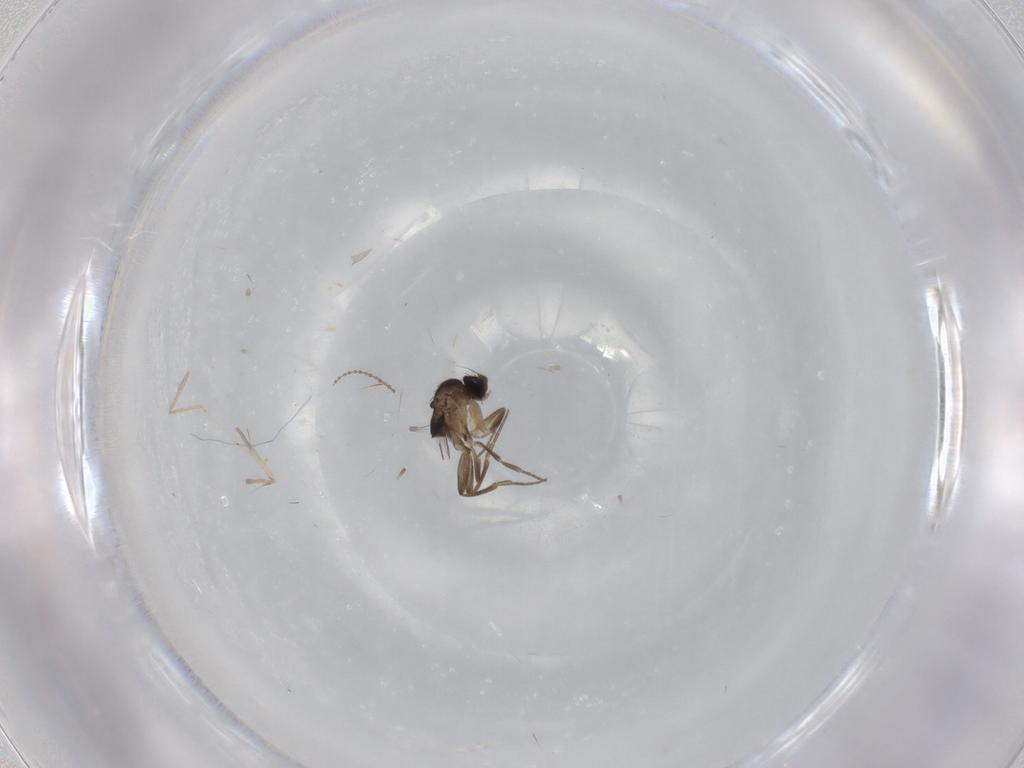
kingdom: Animalia
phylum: Arthropoda
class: Insecta
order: Diptera
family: Phoridae
